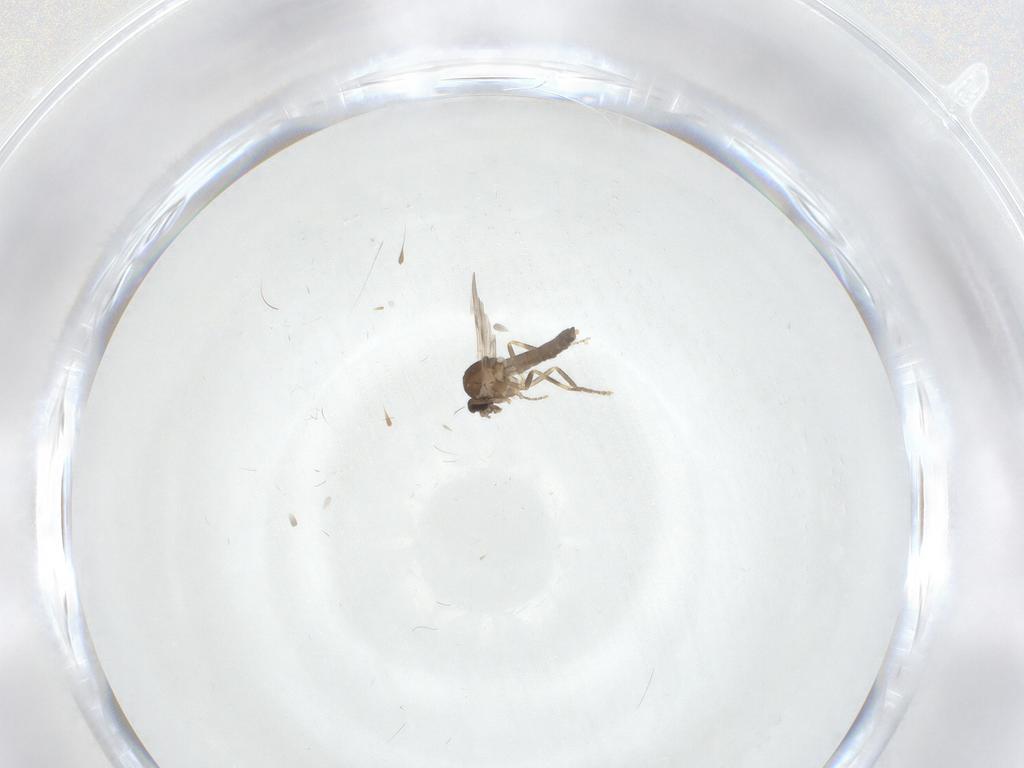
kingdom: Animalia
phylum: Arthropoda
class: Insecta
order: Diptera
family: Ceratopogonidae
